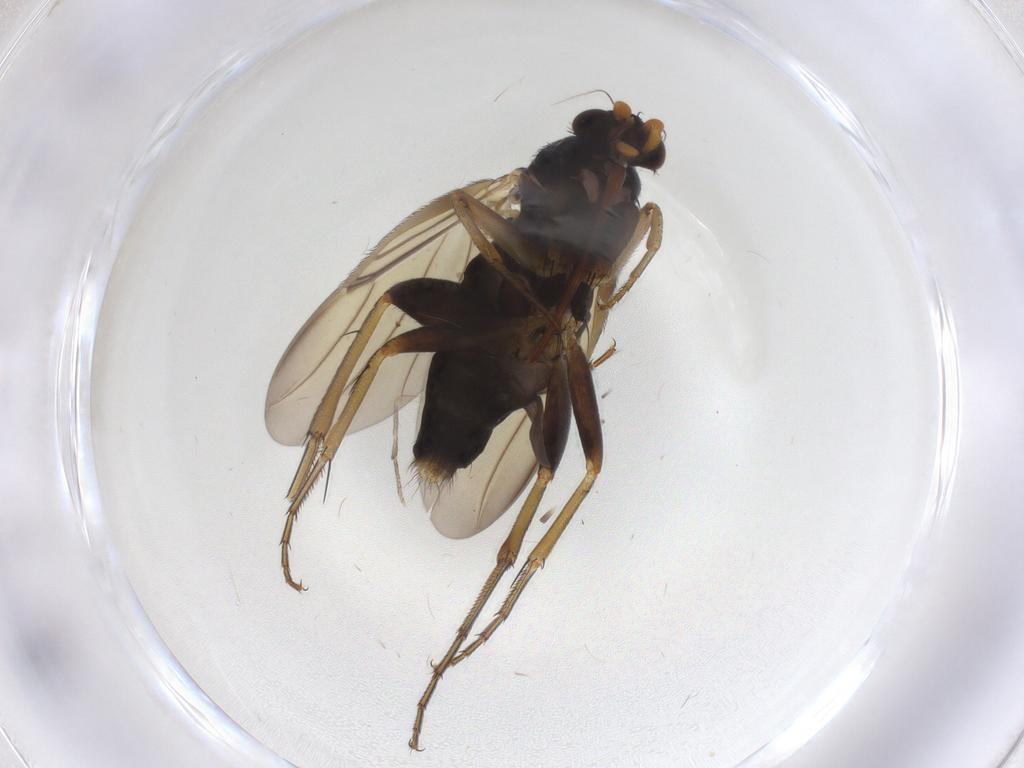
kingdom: Animalia
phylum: Arthropoda
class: Insecta
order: Diptera
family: Phoridae
